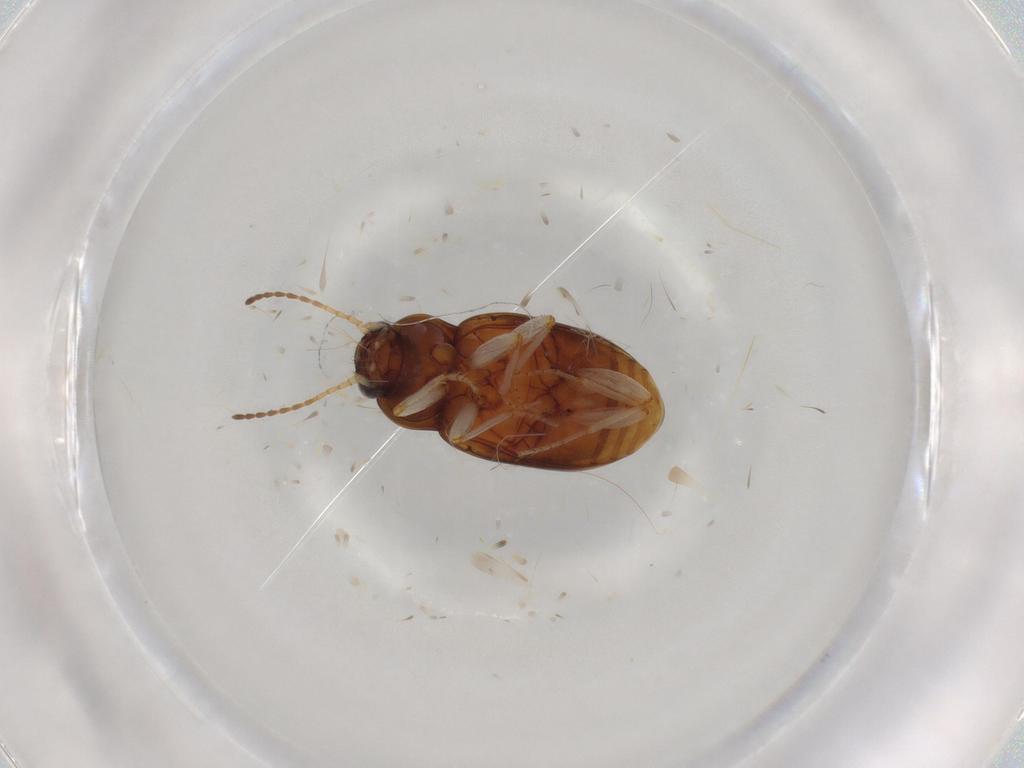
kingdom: Animalia
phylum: Arthropoda
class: Insecta
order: Coleoptera
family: Carabidae
